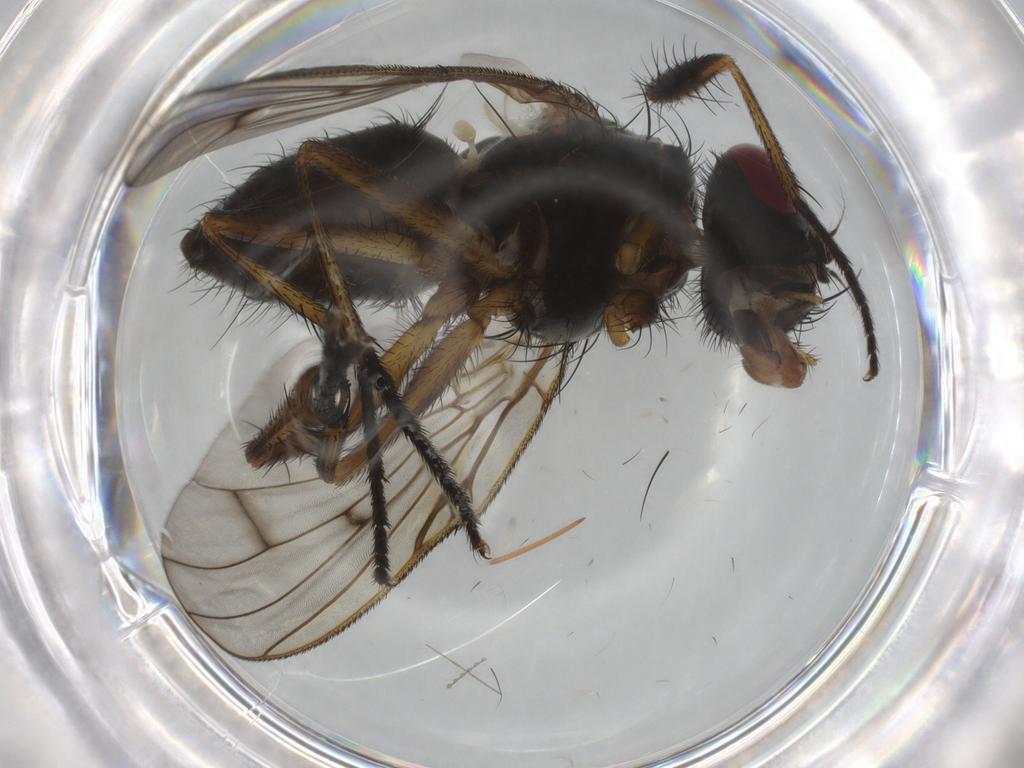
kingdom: Animalia
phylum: Arthropoda
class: Insecta
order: Diptera
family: Muscidae
